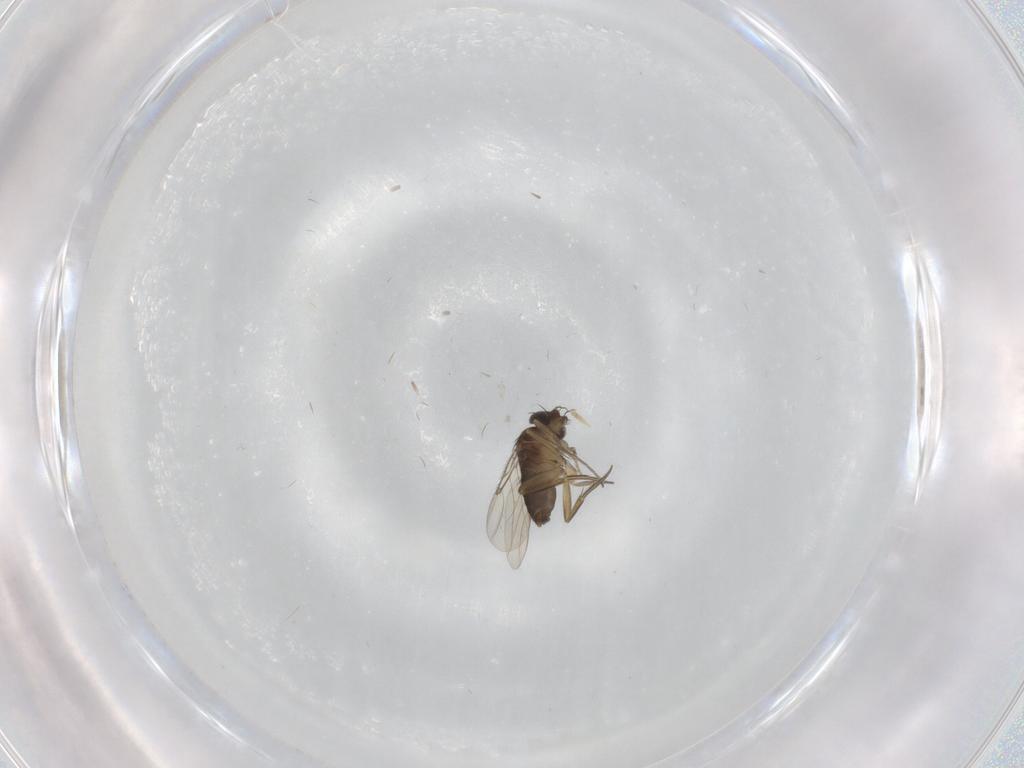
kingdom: Animalia
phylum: Arthropoda
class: Insecta
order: Diptera
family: Phoridae
